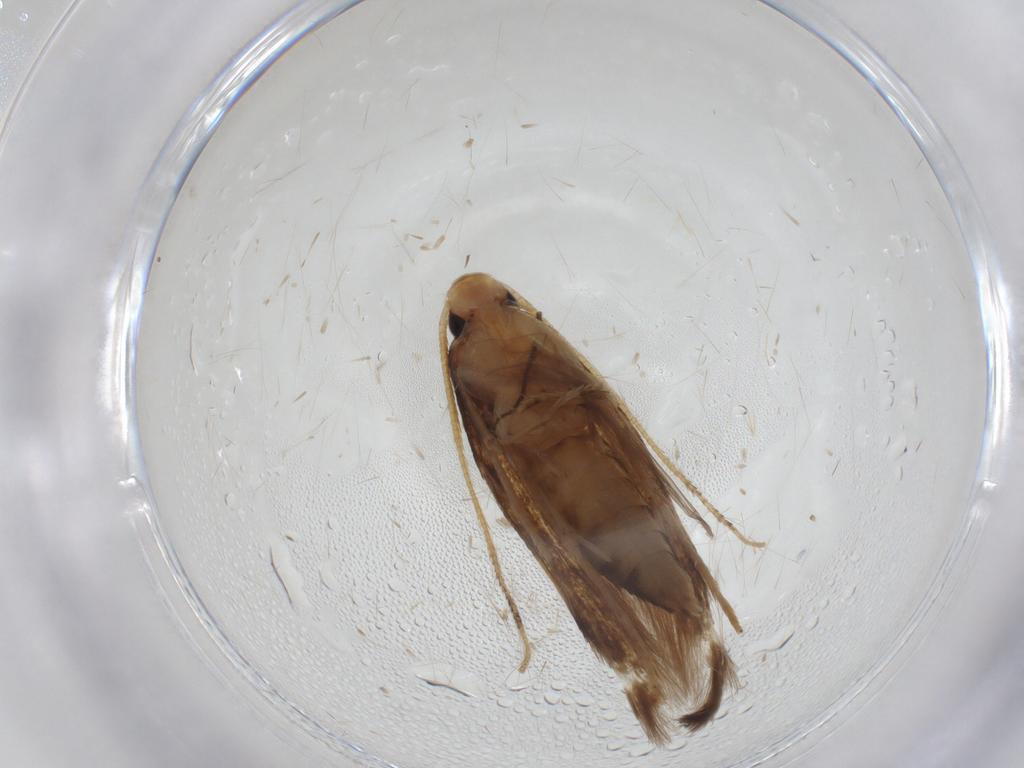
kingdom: Animalia
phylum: Arthropoda
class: Insecta
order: Lepidoptera
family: Tineidae
